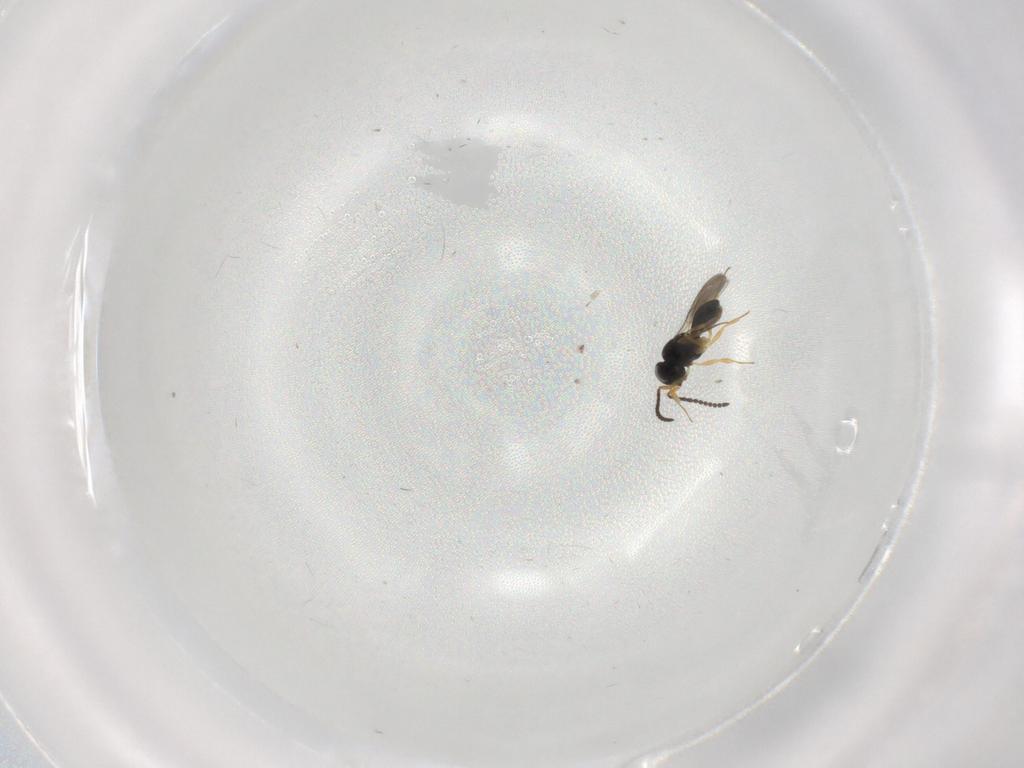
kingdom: Animalia
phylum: Arthropoda
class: Insecta
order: Hymenoptera
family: Scelionidae
